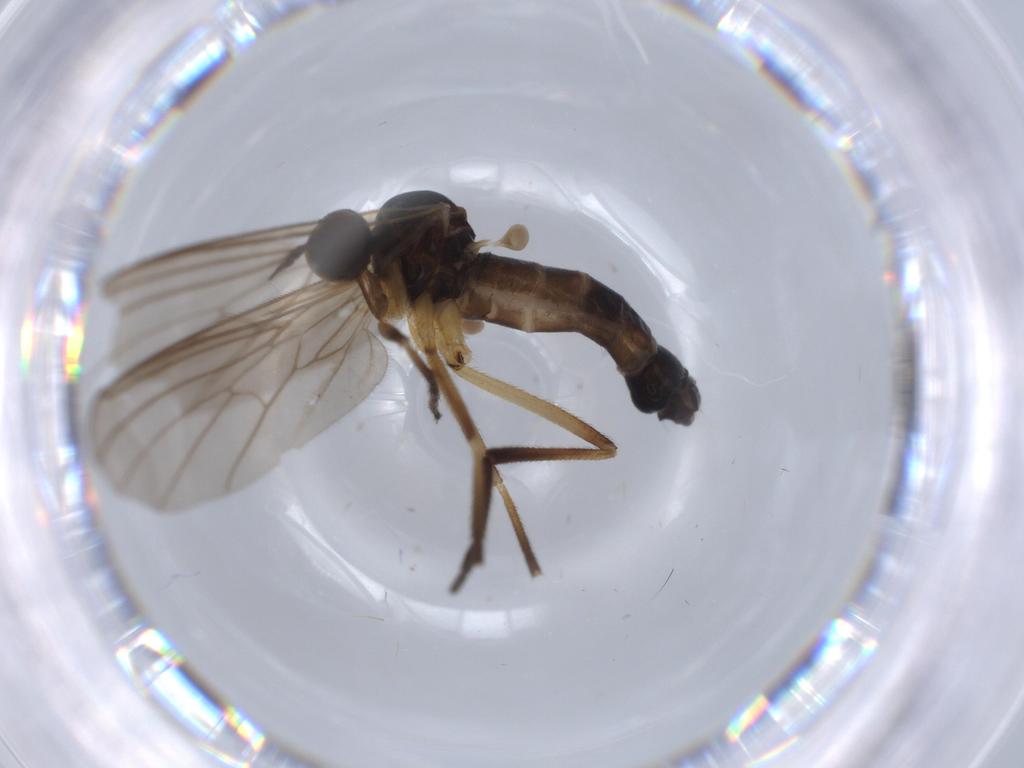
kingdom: Animalia
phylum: Arthropoda
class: Insecta
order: Diptera
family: Empididae
